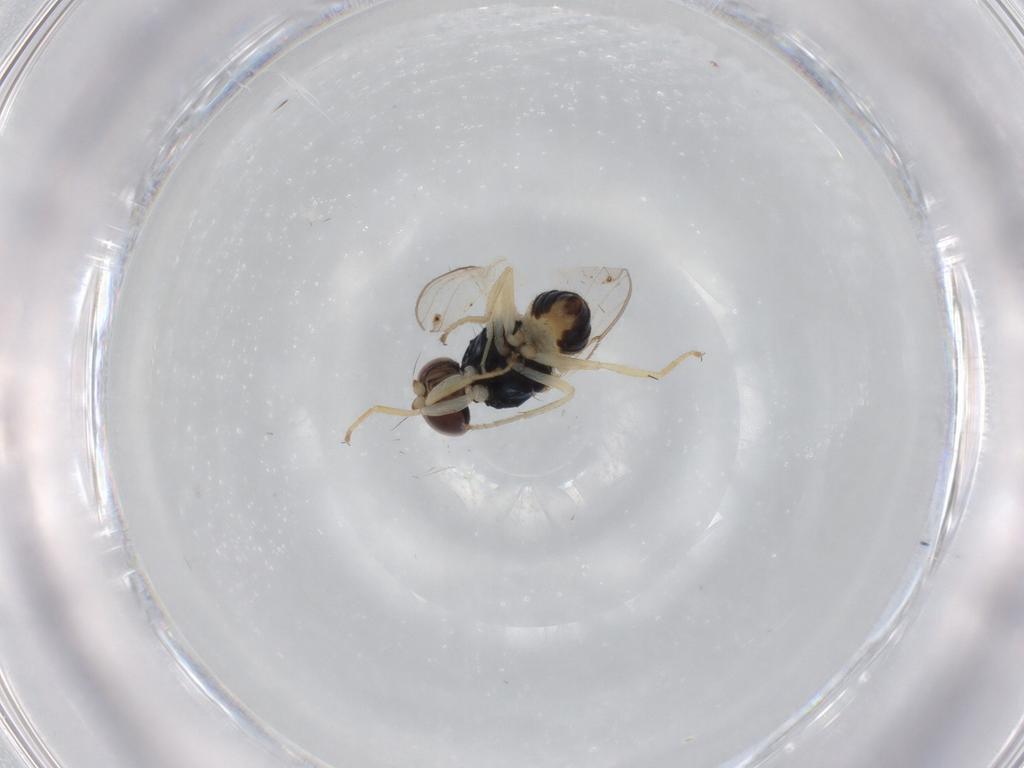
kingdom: Animalia
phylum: Arthropoda
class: Insecta
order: Diptera
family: Chloropidae
